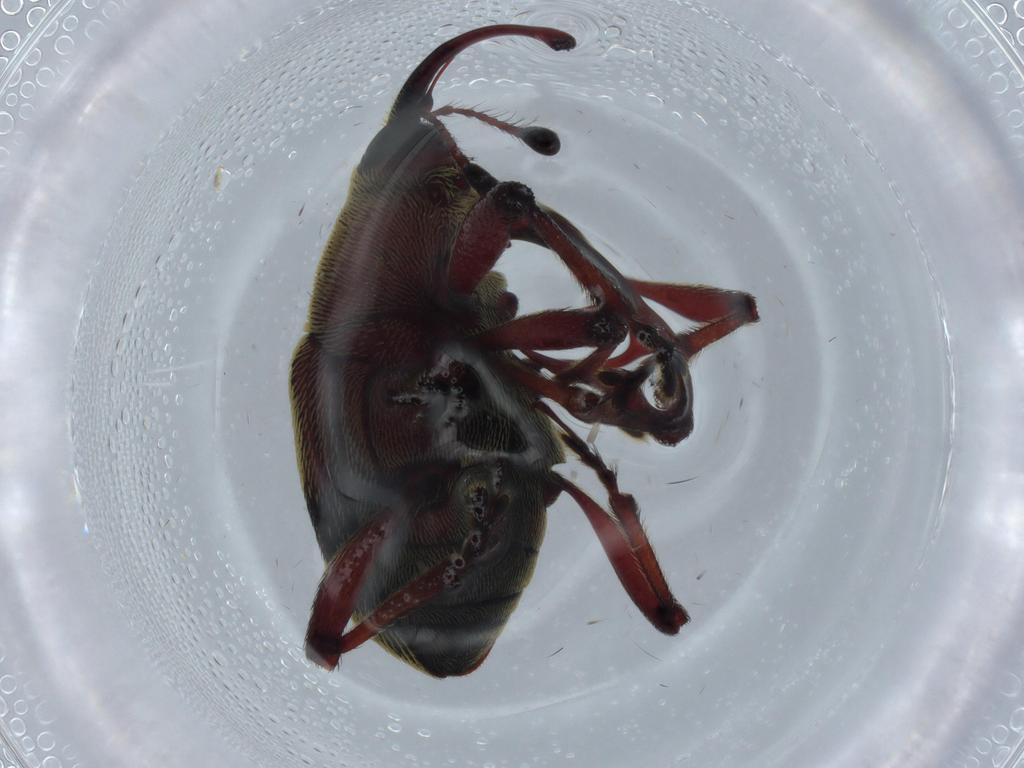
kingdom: Animalia
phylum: Arthropoda
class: Insecta
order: Coleoptera
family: Curculionidae
